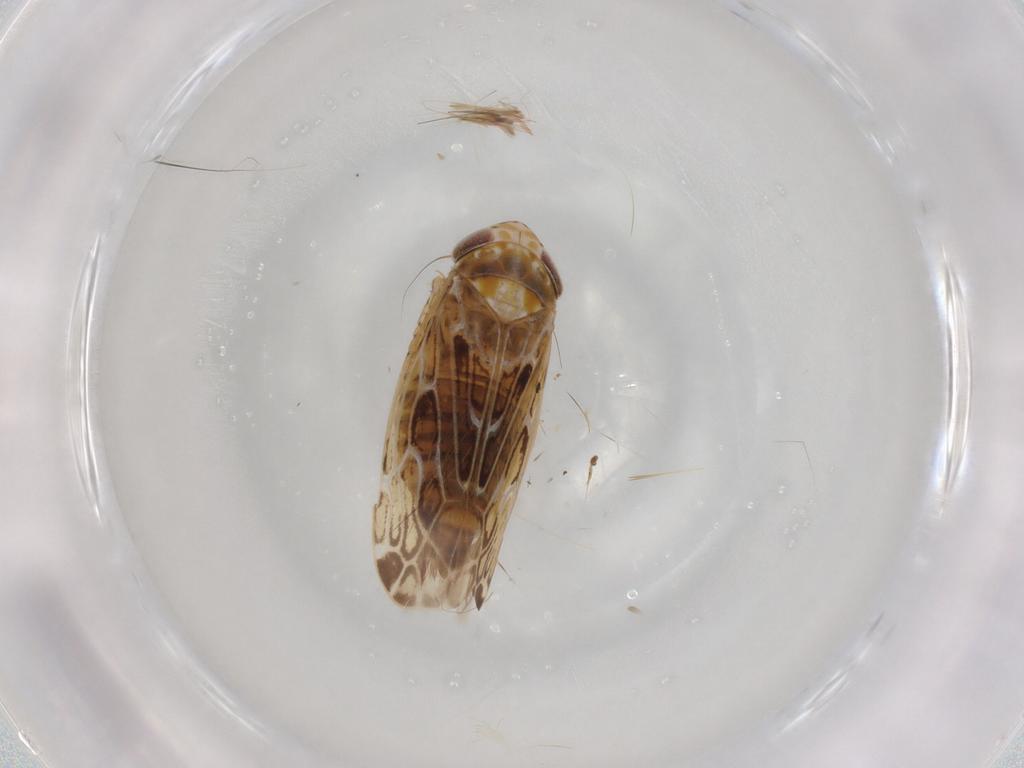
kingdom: Animalia
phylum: Arthropoda
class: Insecta
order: Hemiptera
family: Cicadellidae
